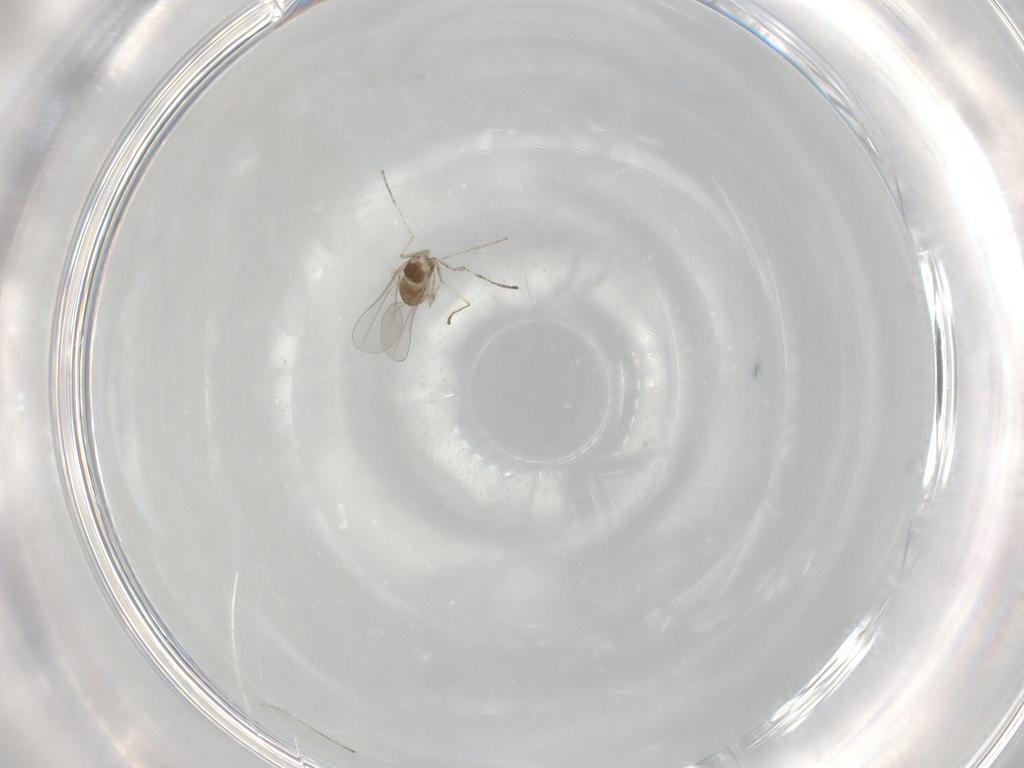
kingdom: Animalia
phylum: Arthropoda
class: Insecta
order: Diptera
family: Cecidomyiidae
